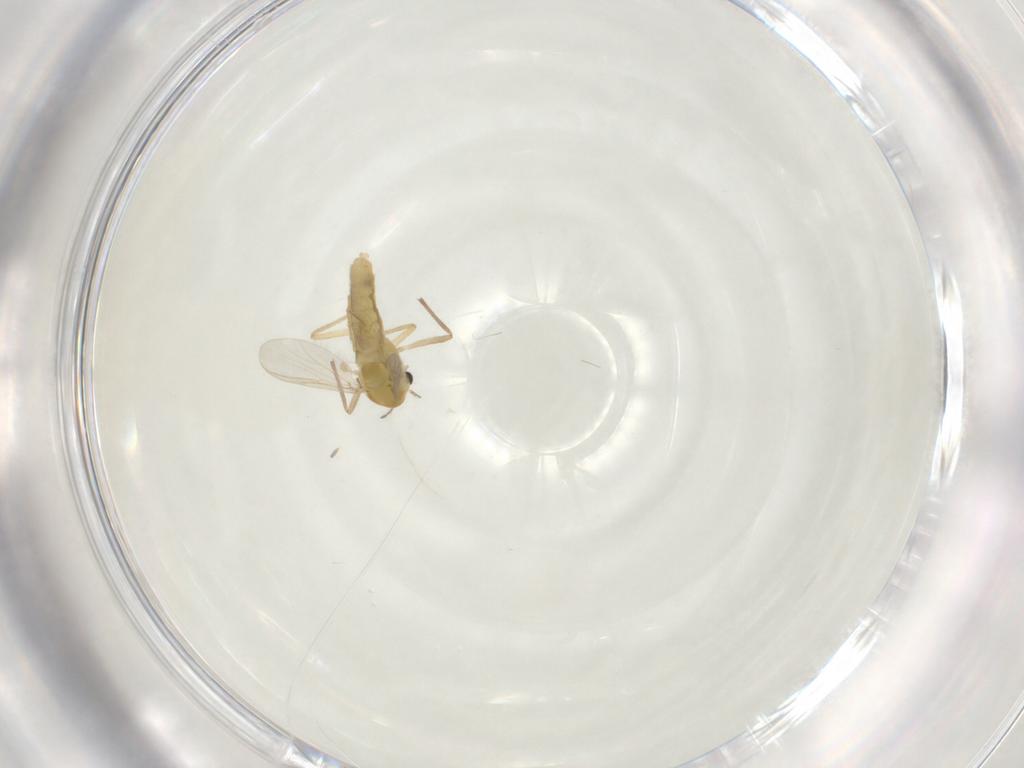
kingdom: Animalia
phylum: Arthropoda
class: Insecta
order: Diptera
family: Chironomidae
